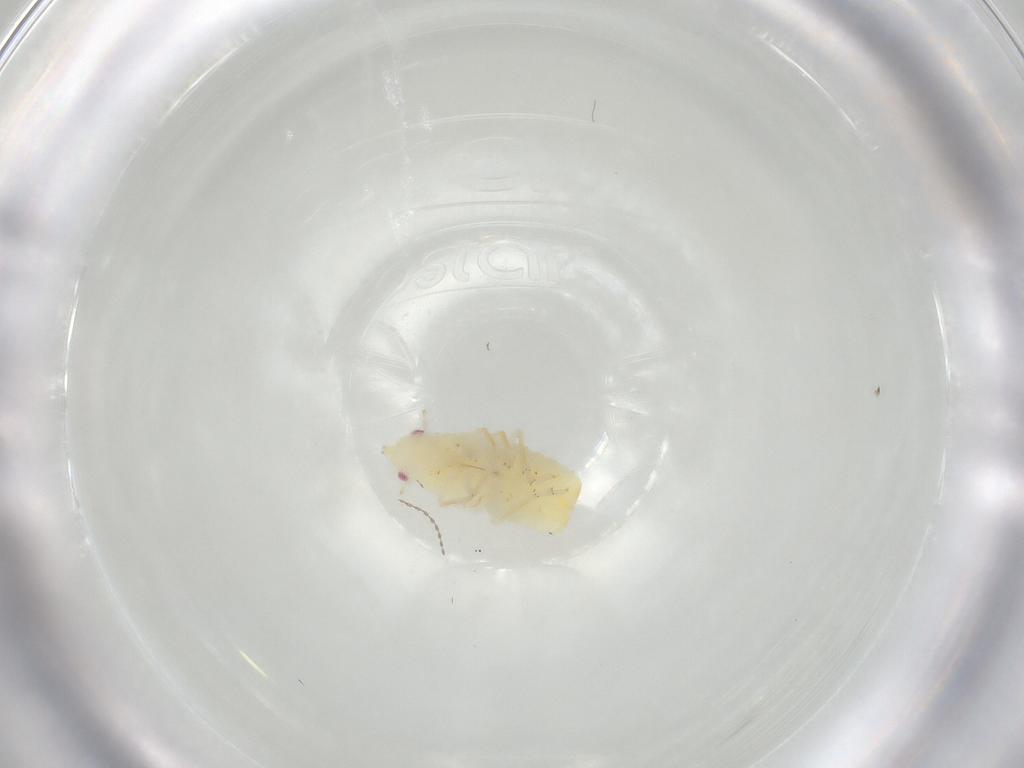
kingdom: Animalia
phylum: Arthropoda
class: Insecta
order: Hemiptera
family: Fulgoroidea_incertae_sedis
